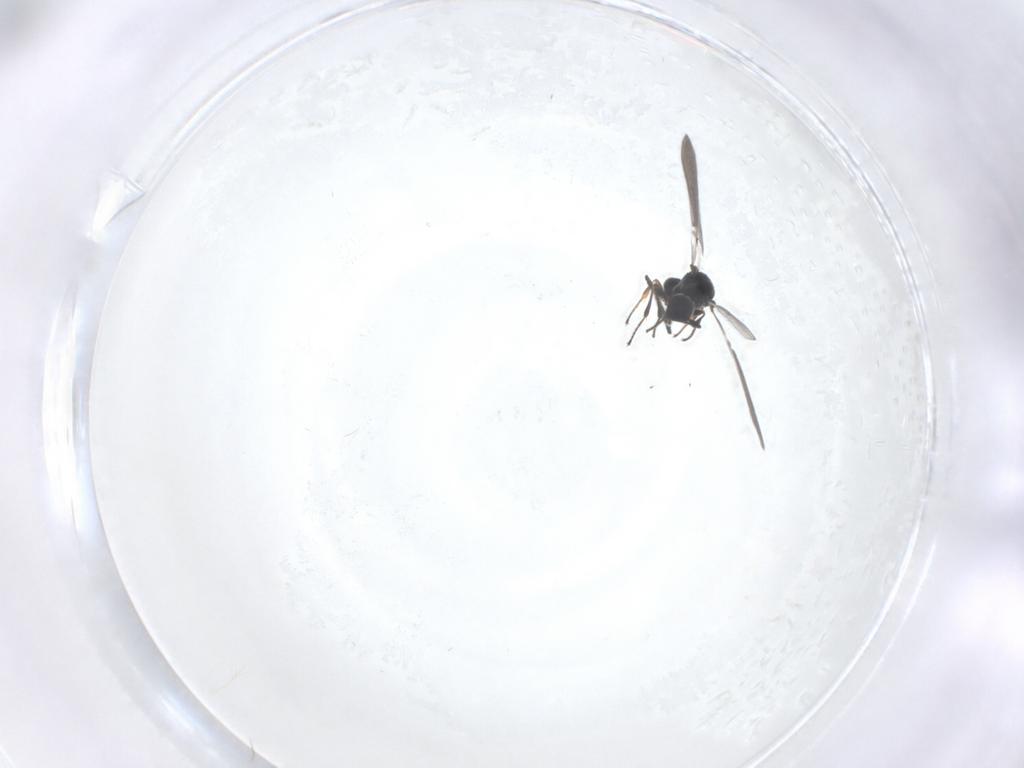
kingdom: Animalia
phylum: Arthropoda
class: Insecta
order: Hymenoptera
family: Platygastridae
